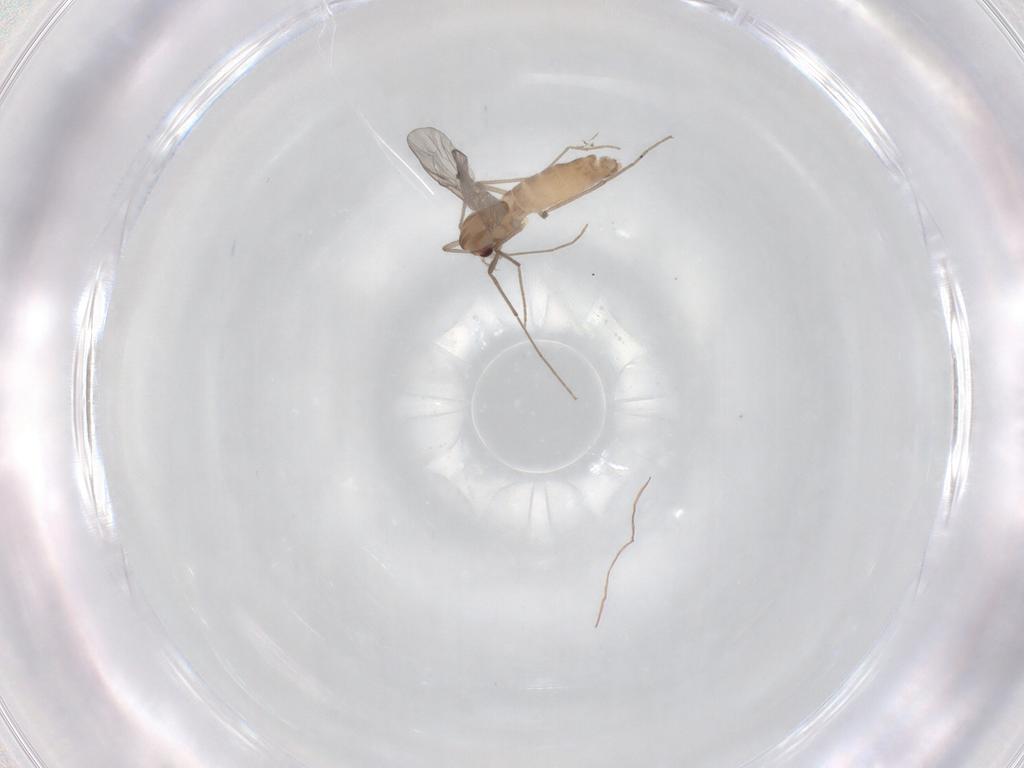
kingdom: Animalia
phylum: Arthropoda
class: Insecta
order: Diptera
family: Chironomidae
